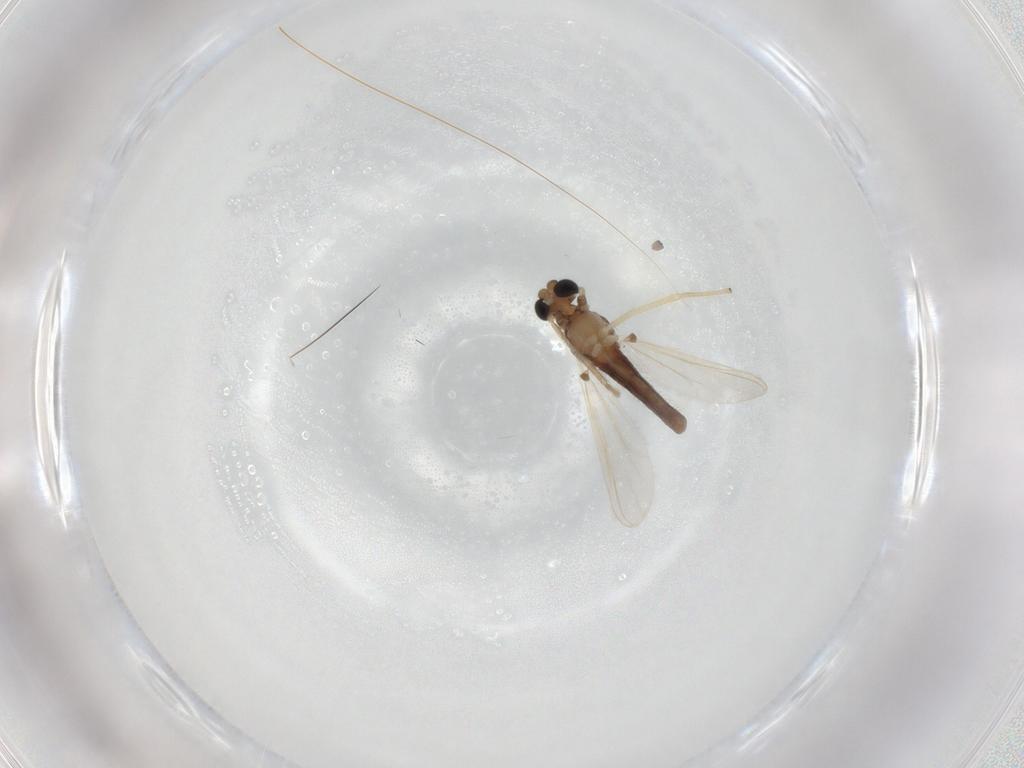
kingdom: Animalia
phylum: Arthropoda
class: Insecta
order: Diptera
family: Chironomidae
